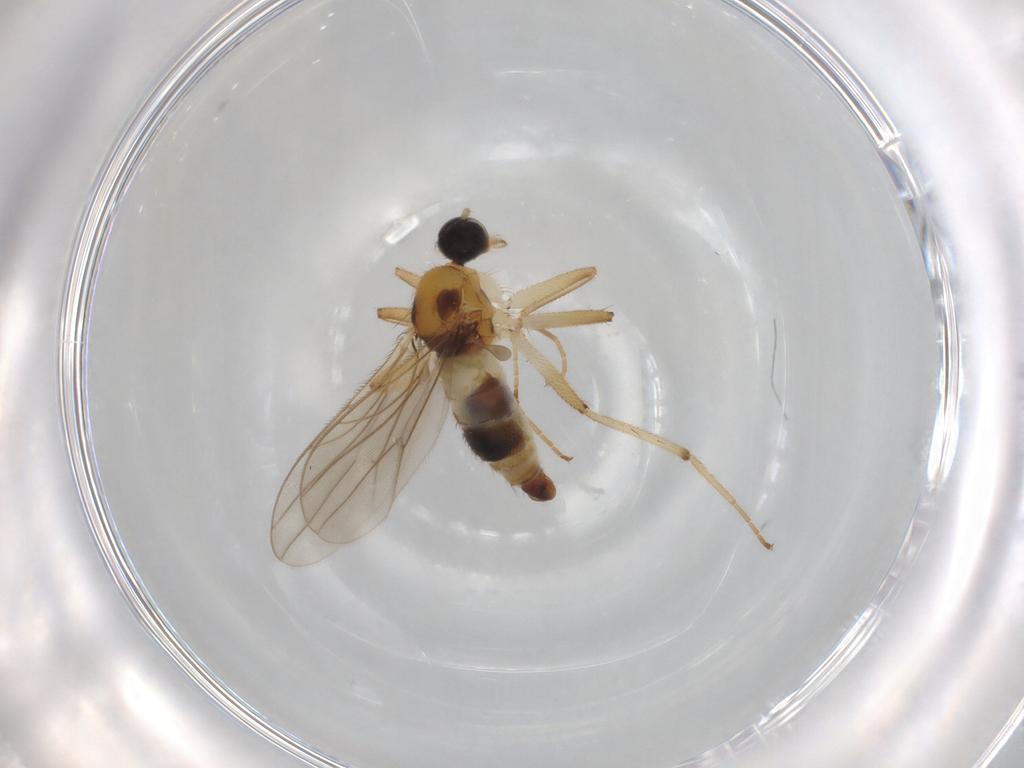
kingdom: Animalia
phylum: Arthropoda
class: Insecta
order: Diptera
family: Hybotidae
